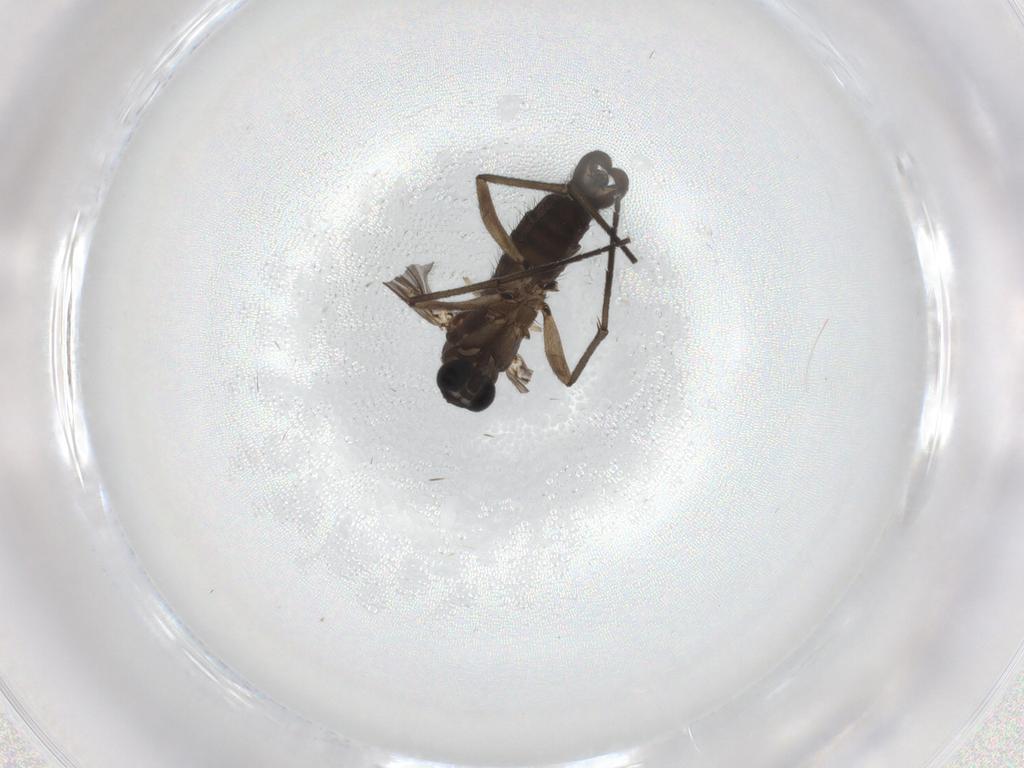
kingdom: Animalia
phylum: Arthropoda
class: Insecta
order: Diptera
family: Sciaridae
